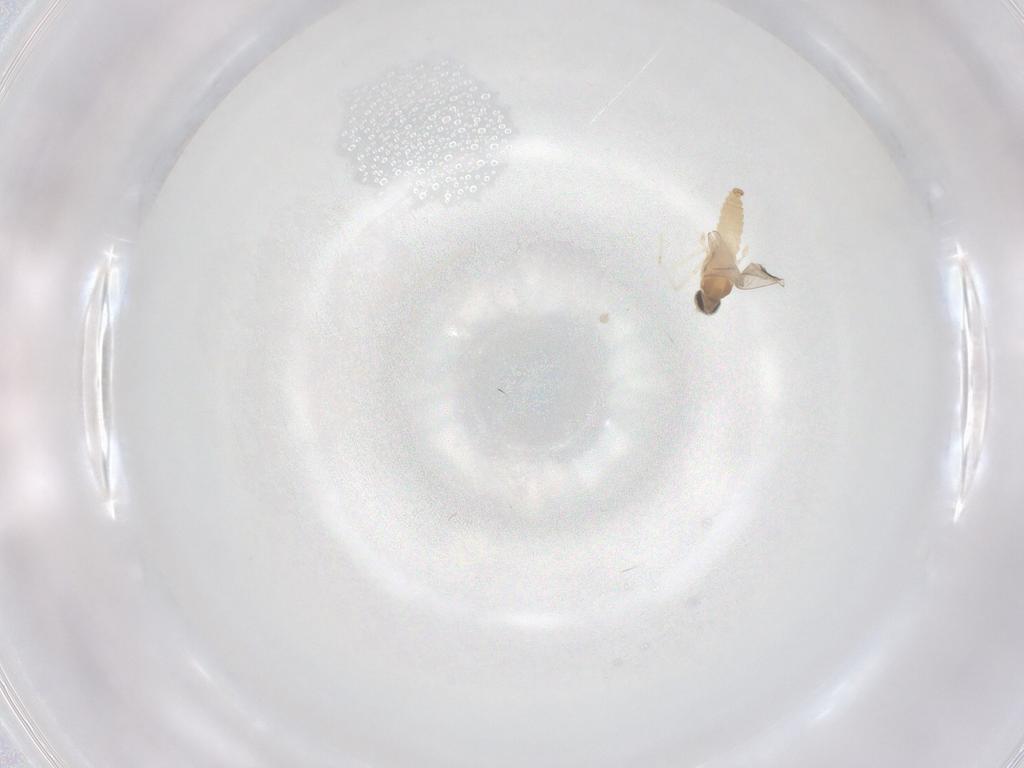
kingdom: Animalia
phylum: Arthropoda
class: Insecta
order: Diptera
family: Cecidomyiidae
